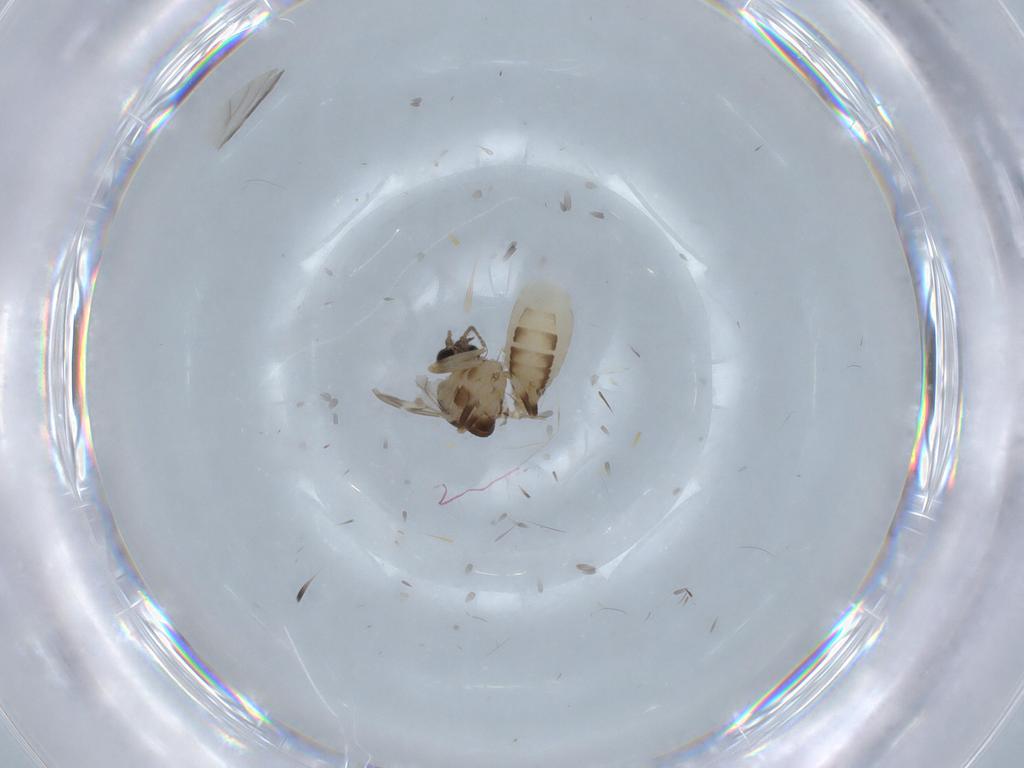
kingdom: Animalia
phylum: Arthropoda
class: Insecta
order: Diptera
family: Ceratopogonidae
